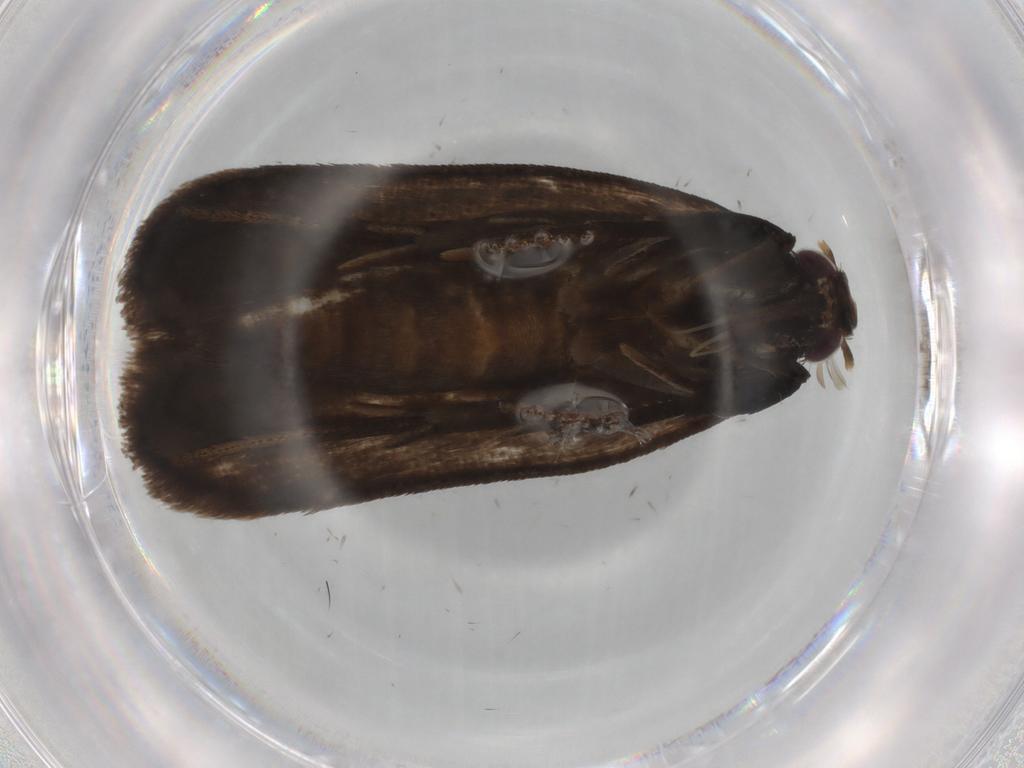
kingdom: Animalia
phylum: Arthropoda
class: Insecta
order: Lepidoptera
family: Gelechiidae
